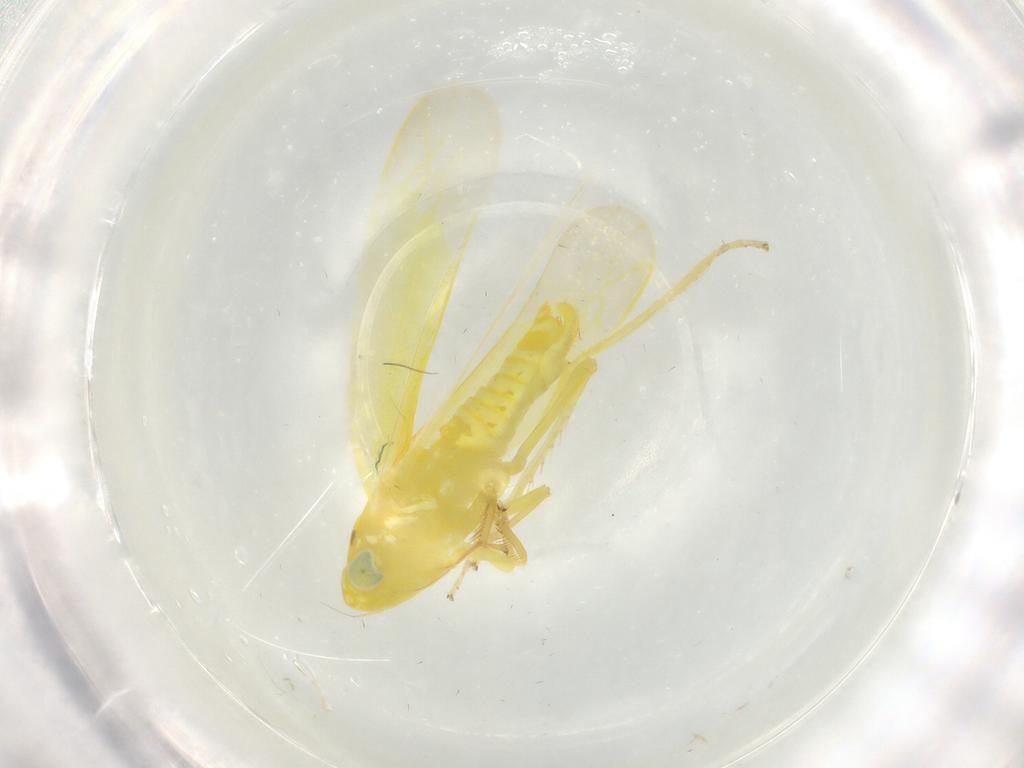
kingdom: Animalia
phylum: Arthropoda
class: Insecta
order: Hemiptera
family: Cicadellidae
